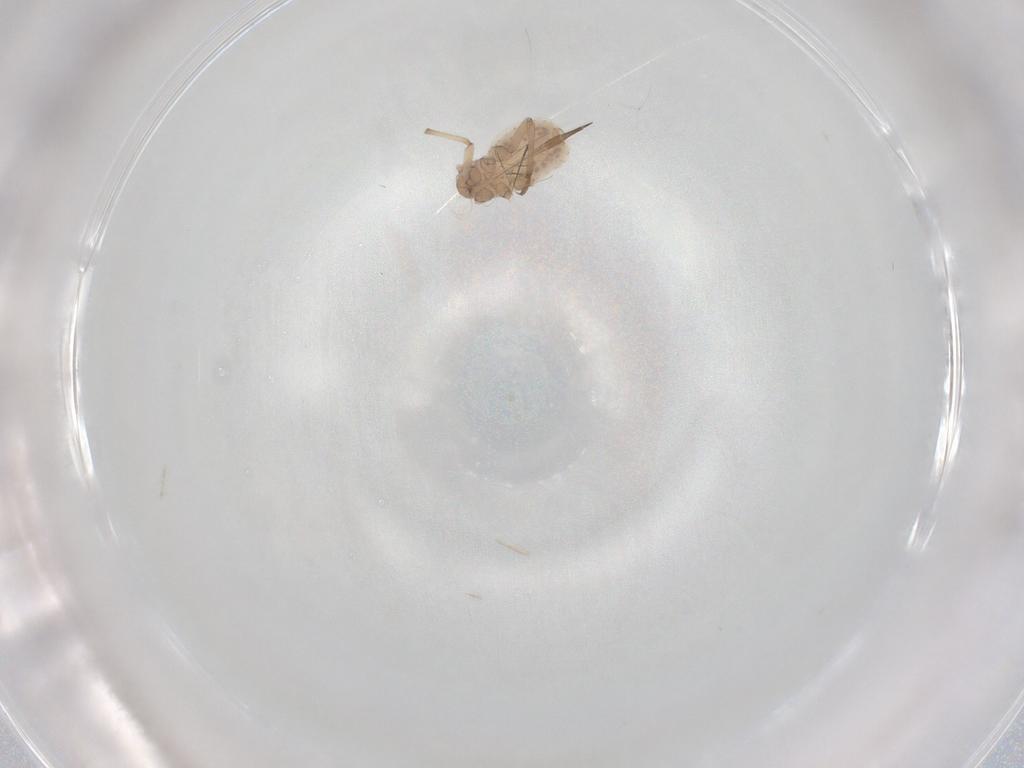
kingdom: Animalia
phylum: Arthropoda
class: Insecta
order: Hemiptera
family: Aphididae
